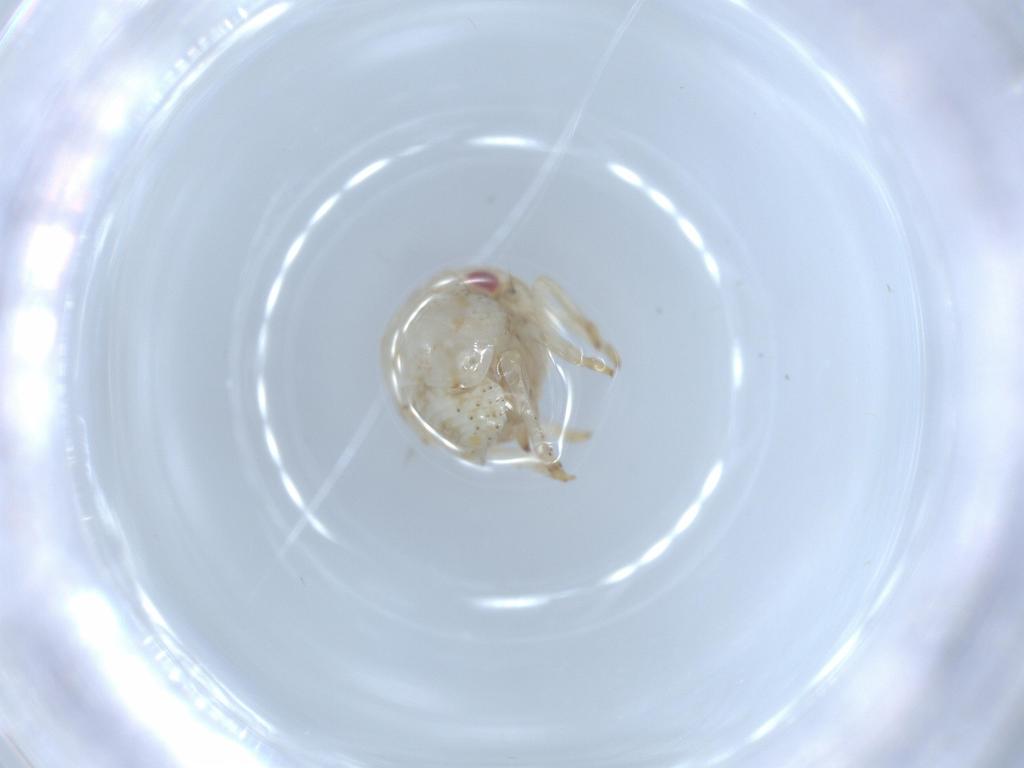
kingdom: Animalia
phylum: Arthropoda
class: Insecta
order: Hemiptera
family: Acanaloniidae
